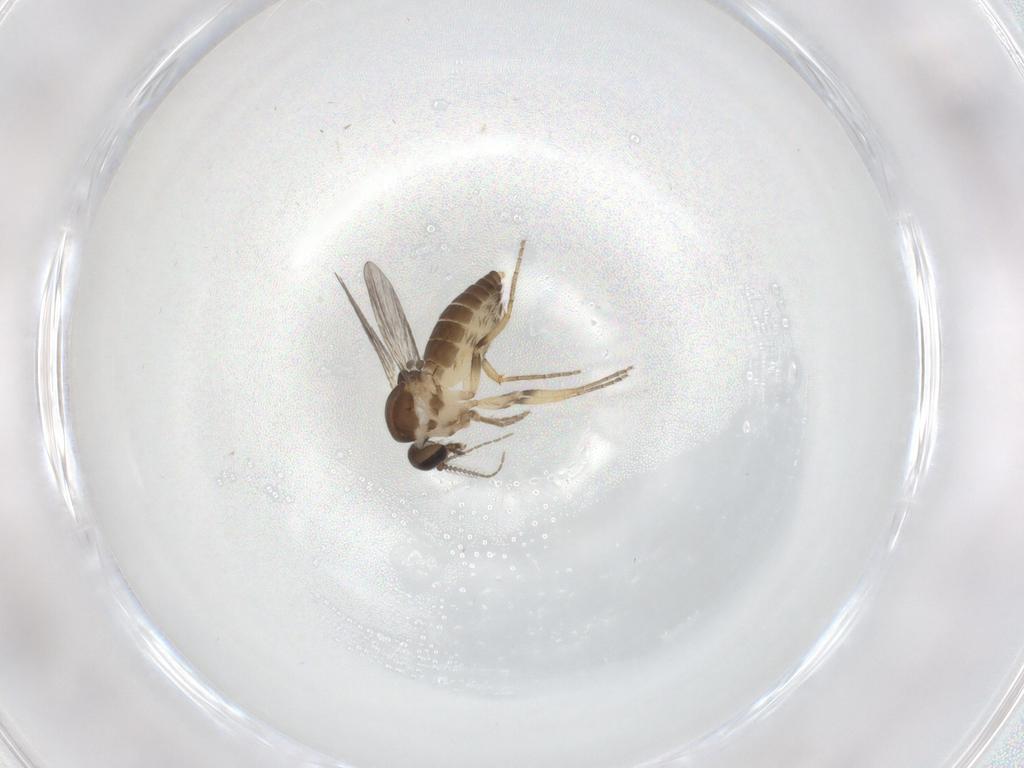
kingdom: Animalia
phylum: Arthropoda
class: Insecta
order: Diptera
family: Ceratopogonidae
